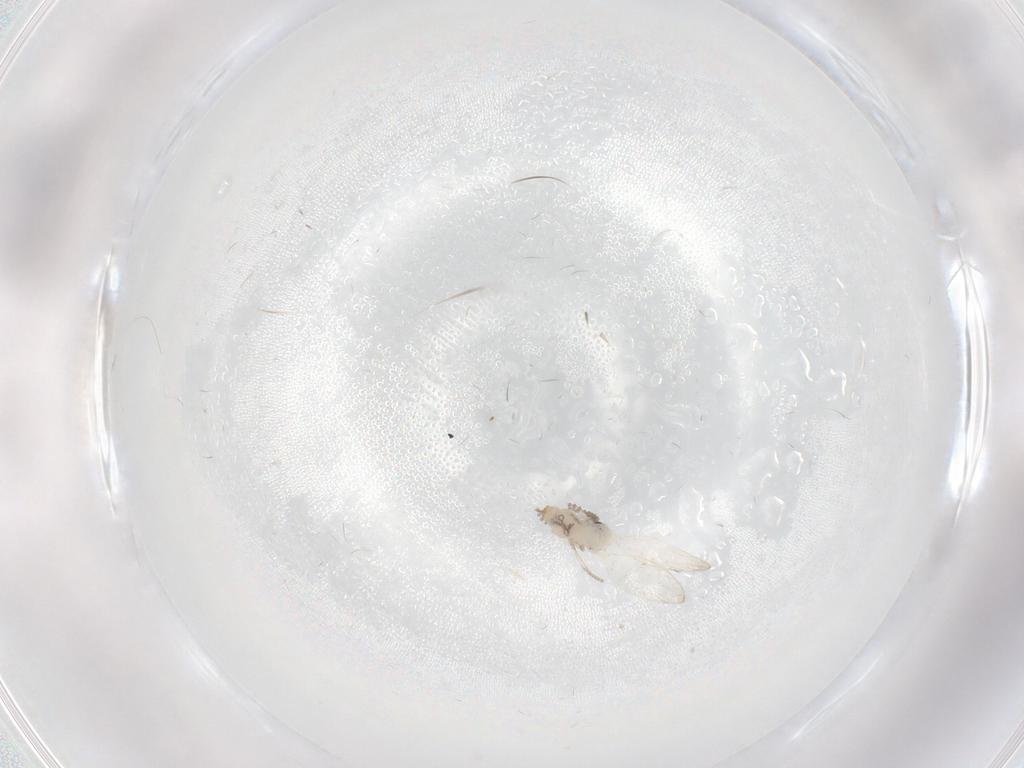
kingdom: Animalia
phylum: Arthropoda
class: Insecta
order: Diptera
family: Psychodidae
